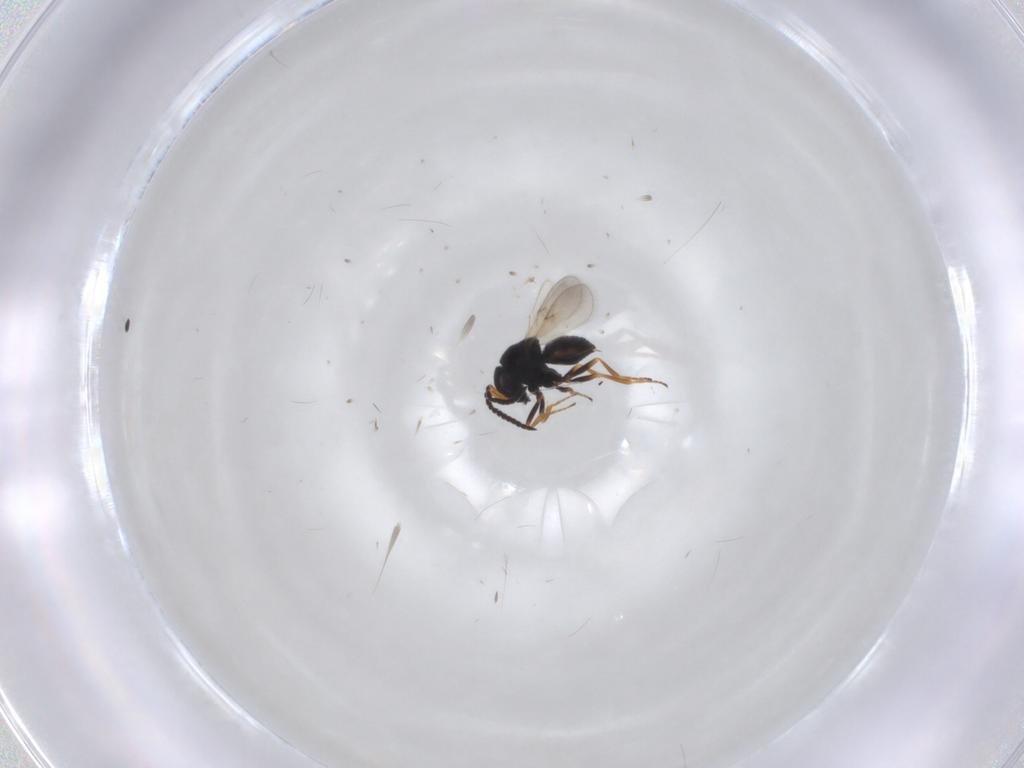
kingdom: Animalia
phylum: Arthropoda
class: Insecta
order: Hymenoptera
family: Scelionidae
